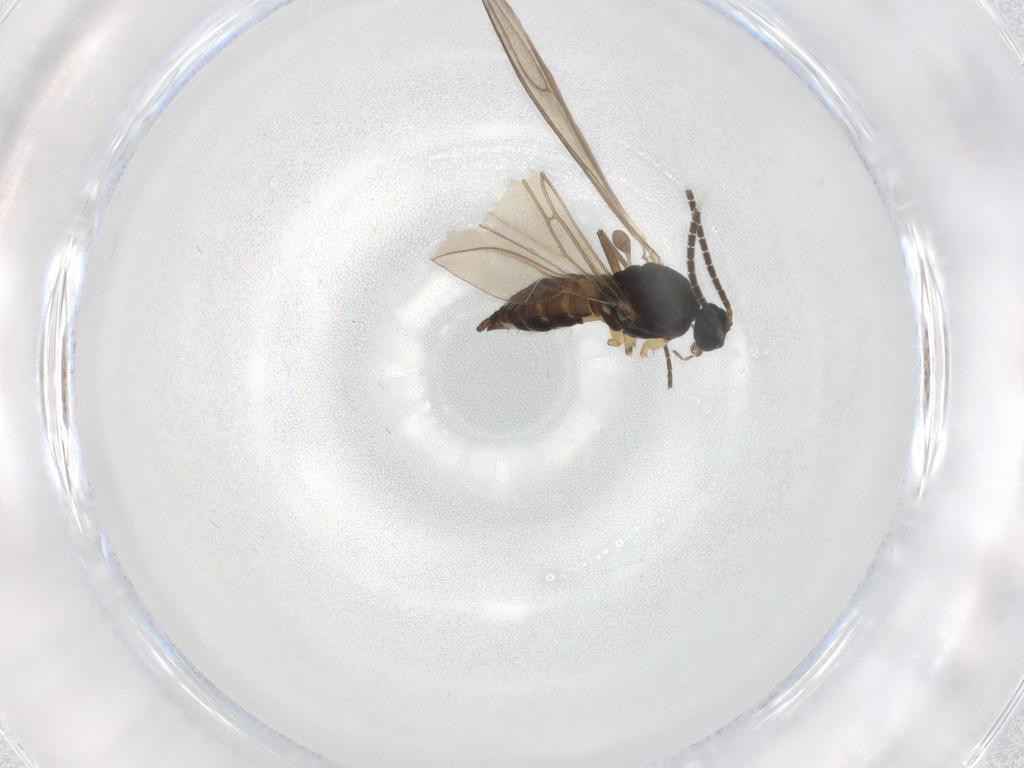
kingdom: Animalia
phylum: Arthropoda
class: Insecta
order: Diptera
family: Sciaridae
